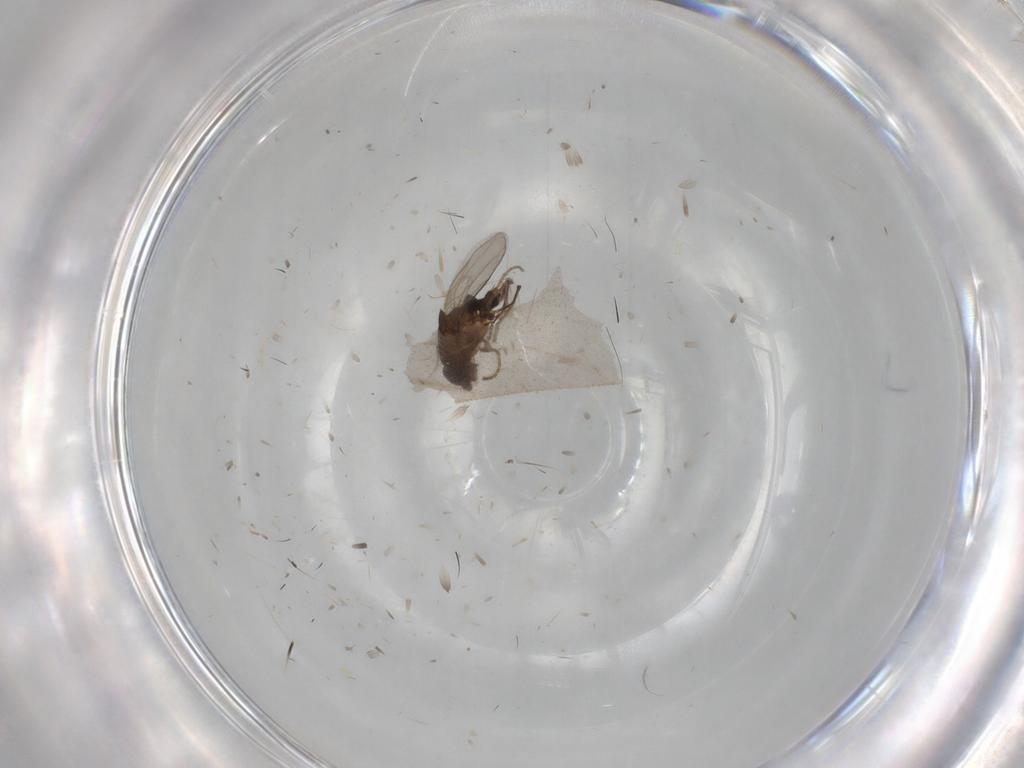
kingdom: Animalia
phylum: Arthropoda
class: Insecta
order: Diptera
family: Sphaeroceridae
